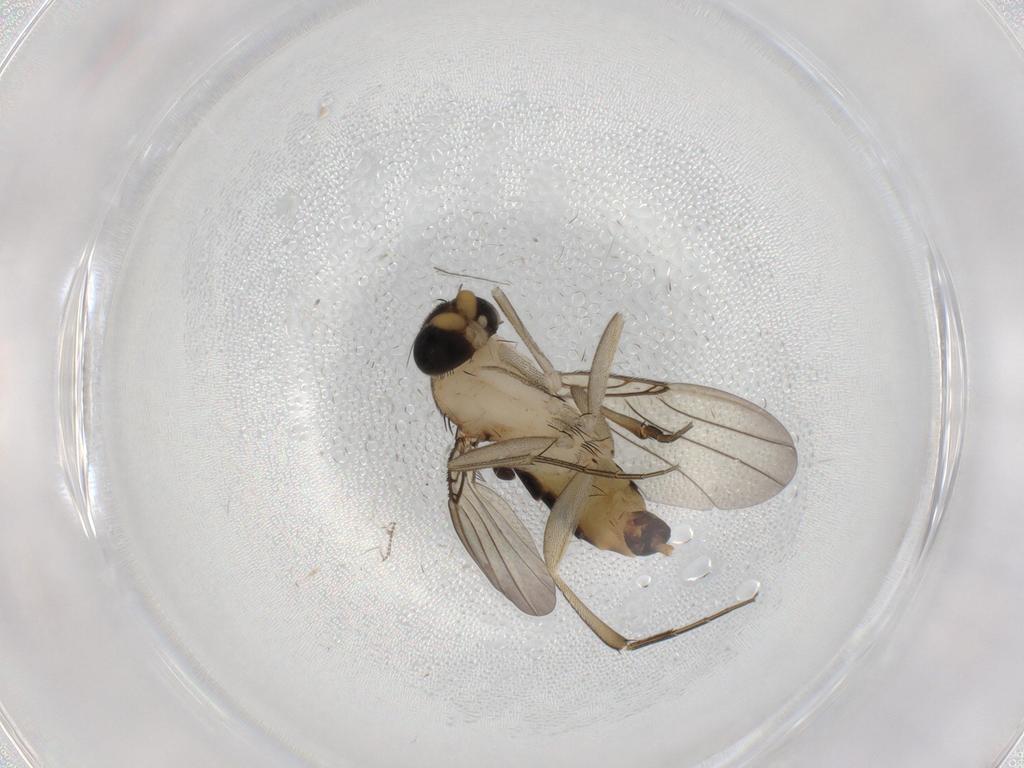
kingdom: Animalia
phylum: Arthropoda
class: Insecta
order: Diptera
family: Phoridae
